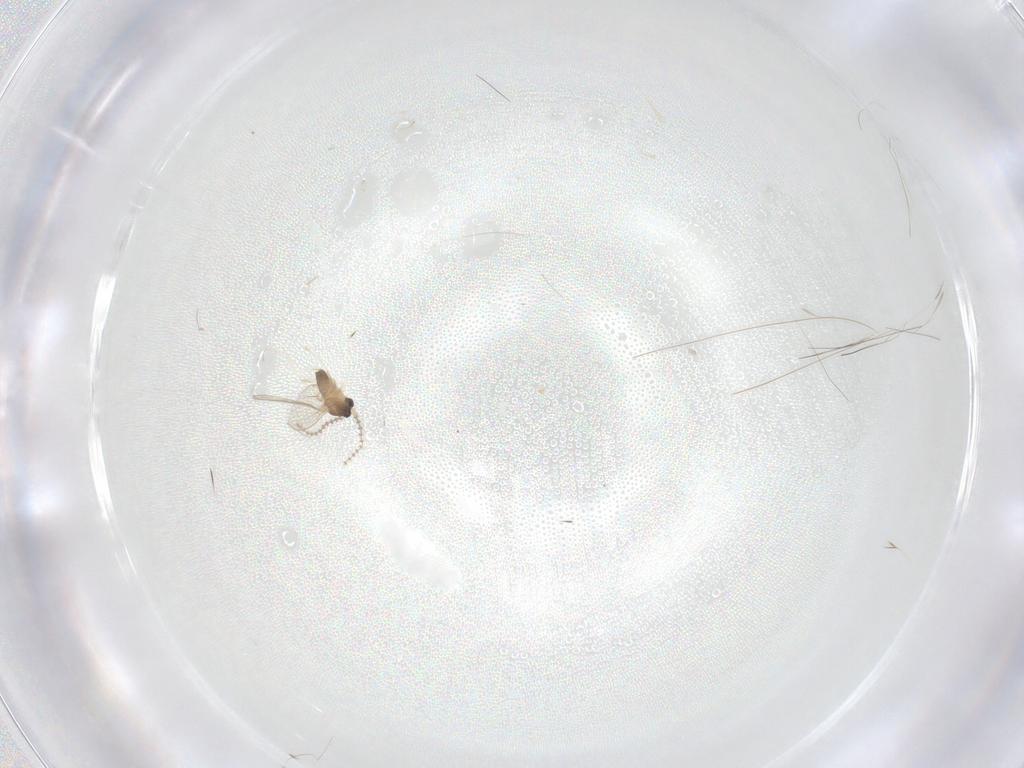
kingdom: Animalia
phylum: Arthropoda
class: Insecta
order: Diptera
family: Cecidomyiidae
